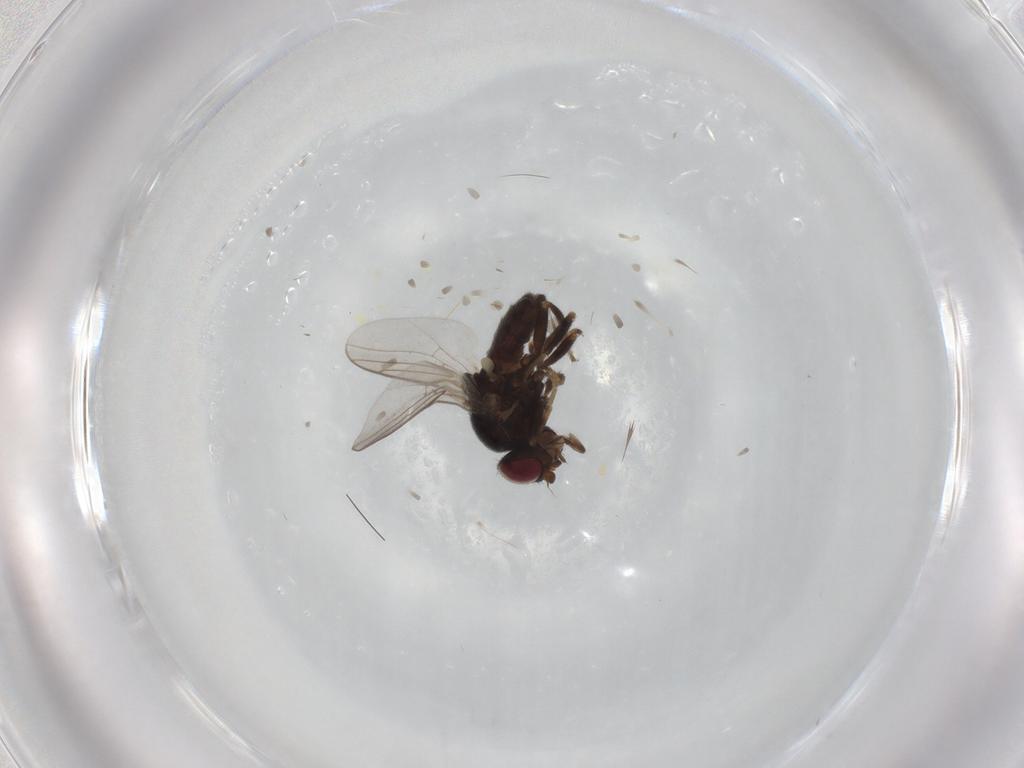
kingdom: Animalia
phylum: Arthropoda
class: Insecta
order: Diptera
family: Chloropidae
